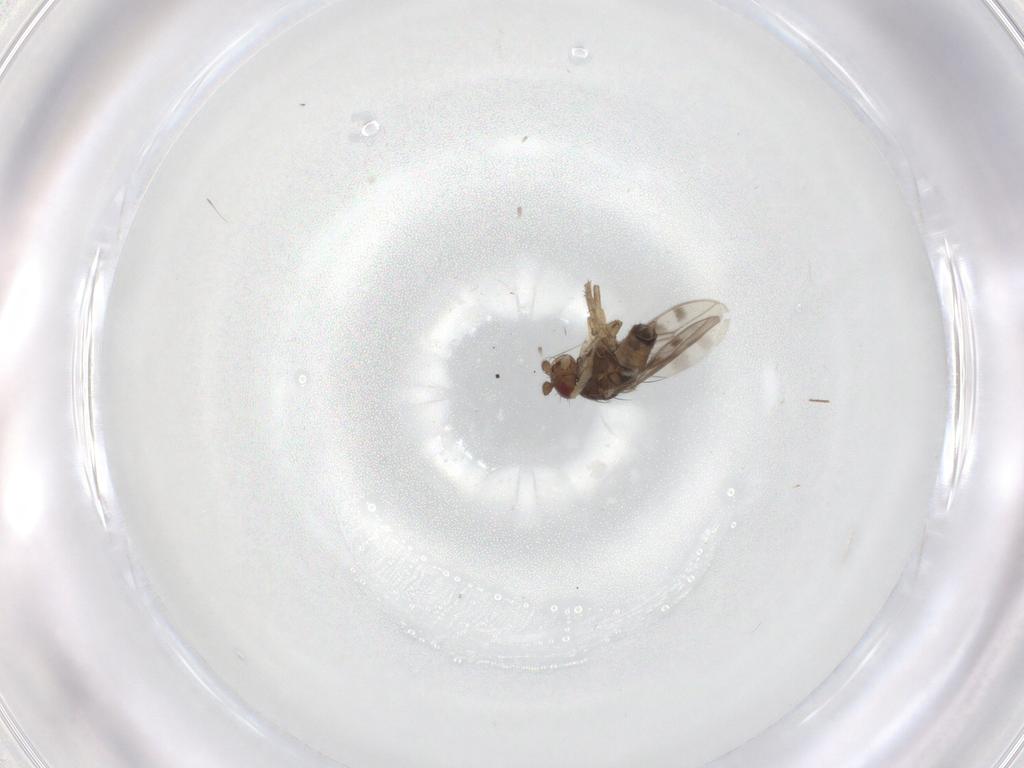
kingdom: Animalia
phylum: Arthropoda
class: Insecta
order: Diptera
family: Sphaeroceridae
